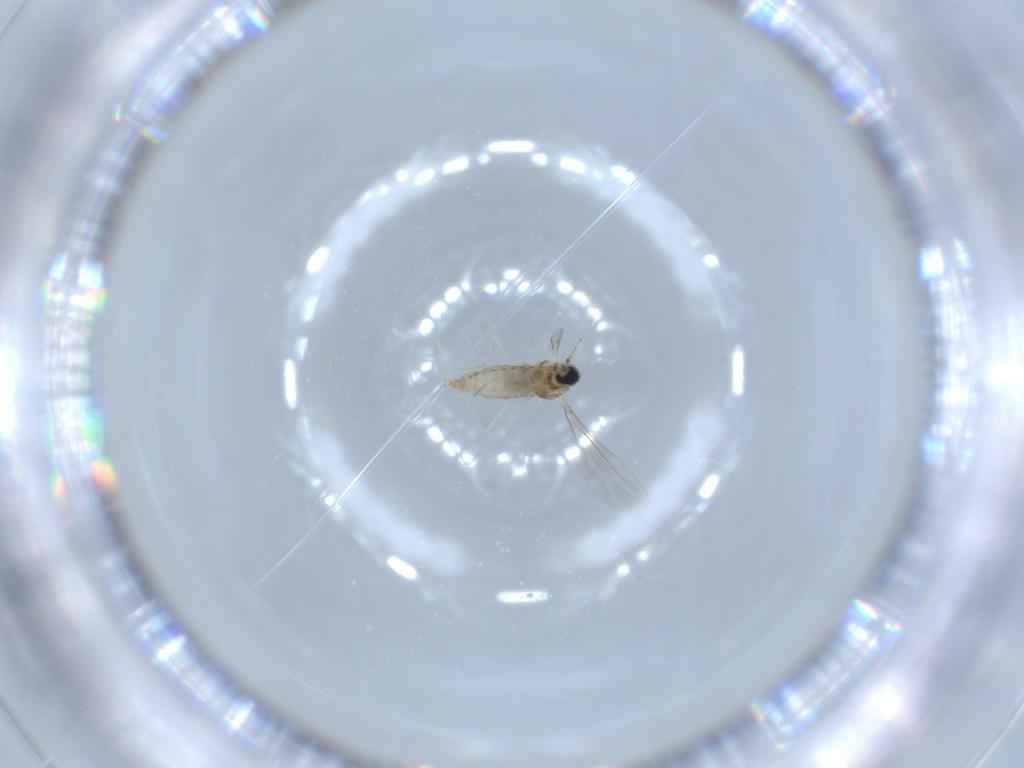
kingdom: Animalia
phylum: Arthropoda
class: Insecta
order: Diptera
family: Cecidomyiidae
